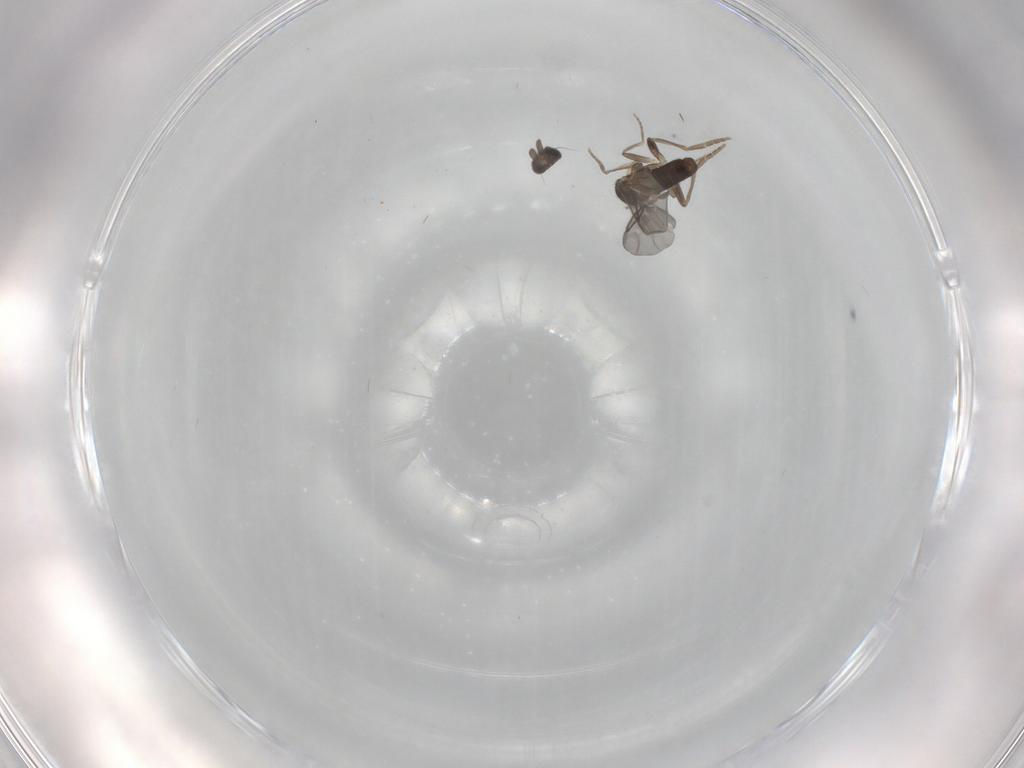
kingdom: Animalia
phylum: Arthropoda
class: Insecta
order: Diptera
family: Dolichopodidae
